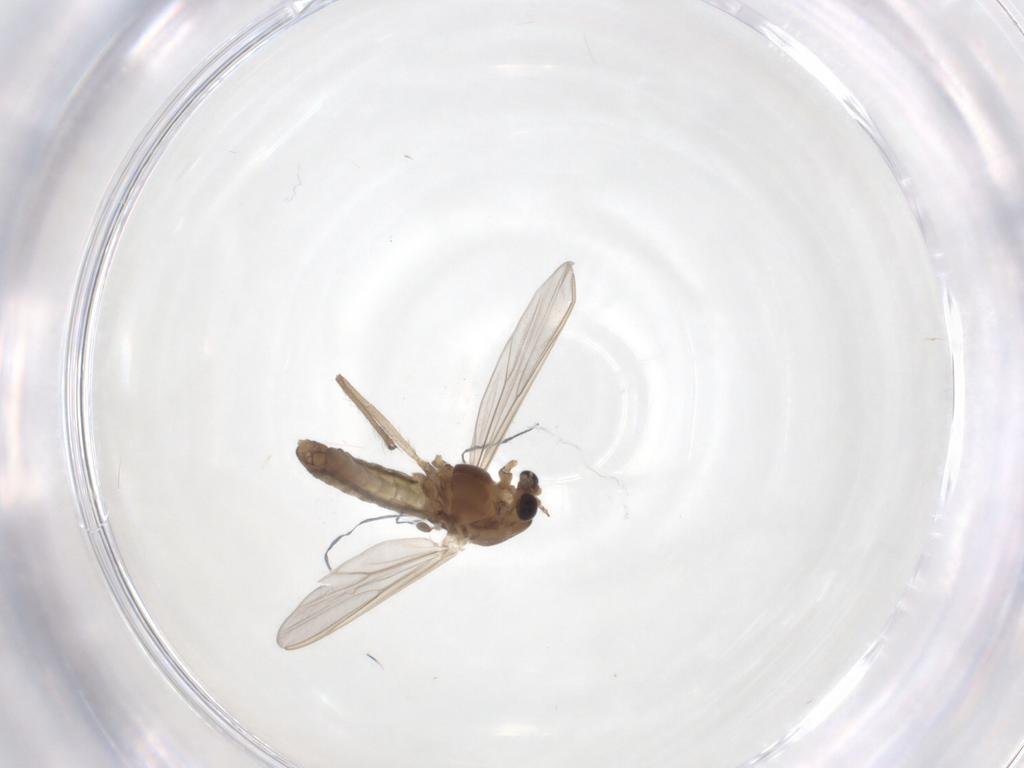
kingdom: Animalia
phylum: Arthropoda
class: Insecta
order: Diptera
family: Chironomidae
